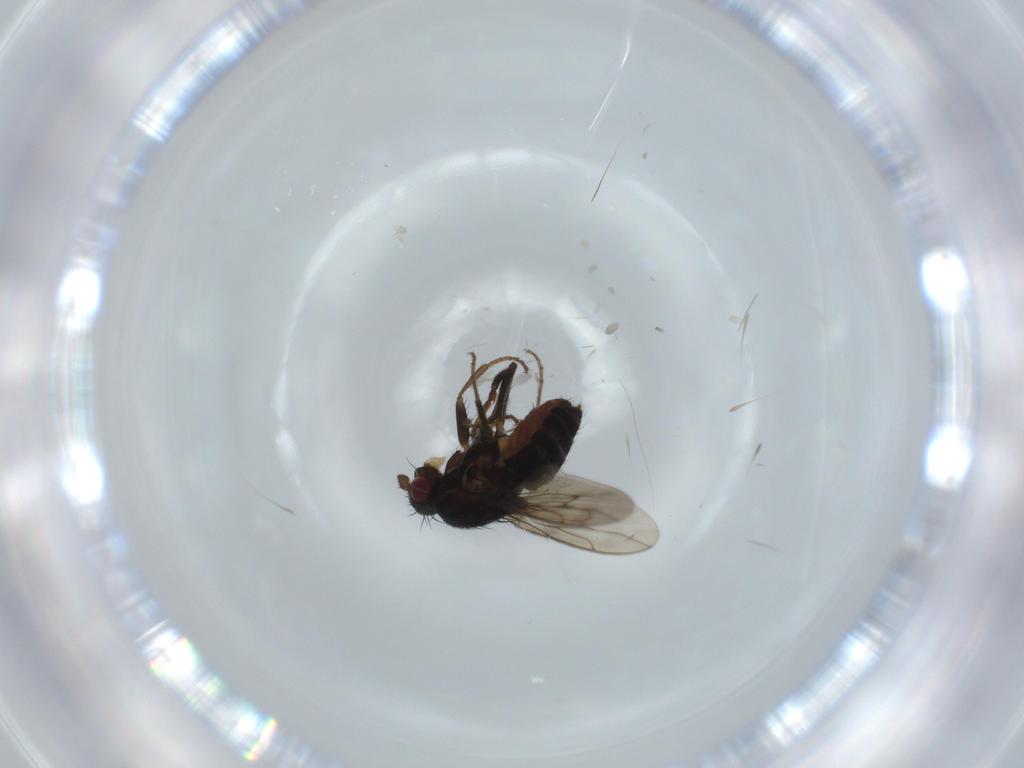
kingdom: Animalia
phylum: Arthropoda
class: Insecta
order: Diptera
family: Sphaeroceridae
